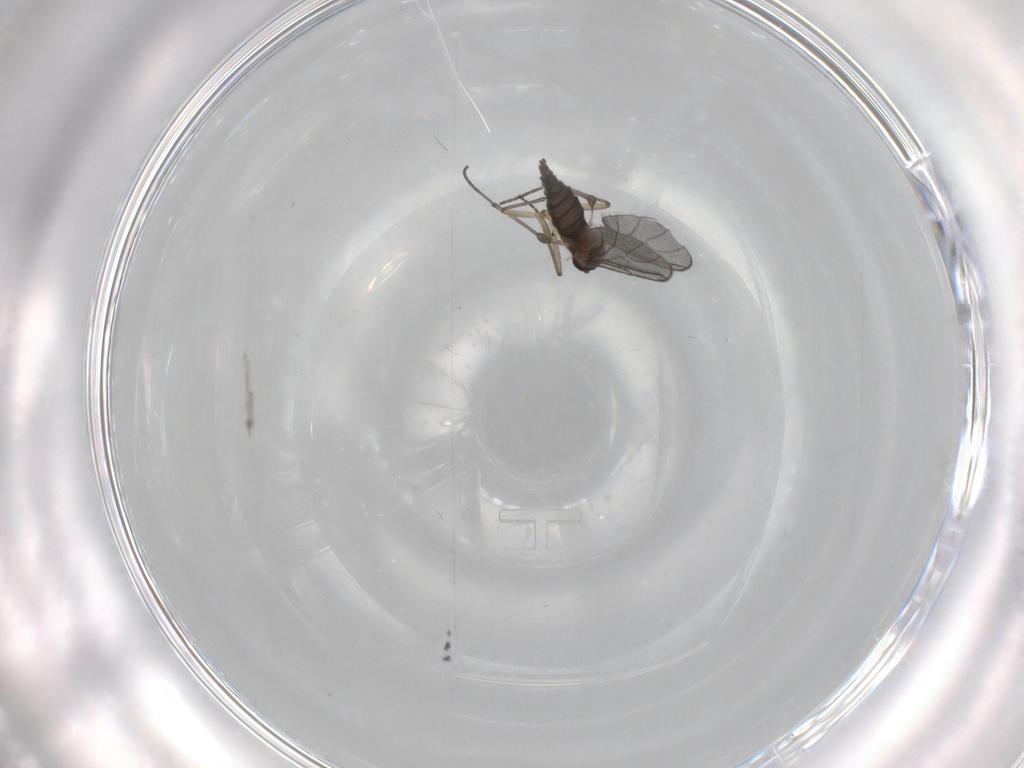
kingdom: Animalia
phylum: Arthropoda
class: Insecta
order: Diptera
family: Sciaridae
